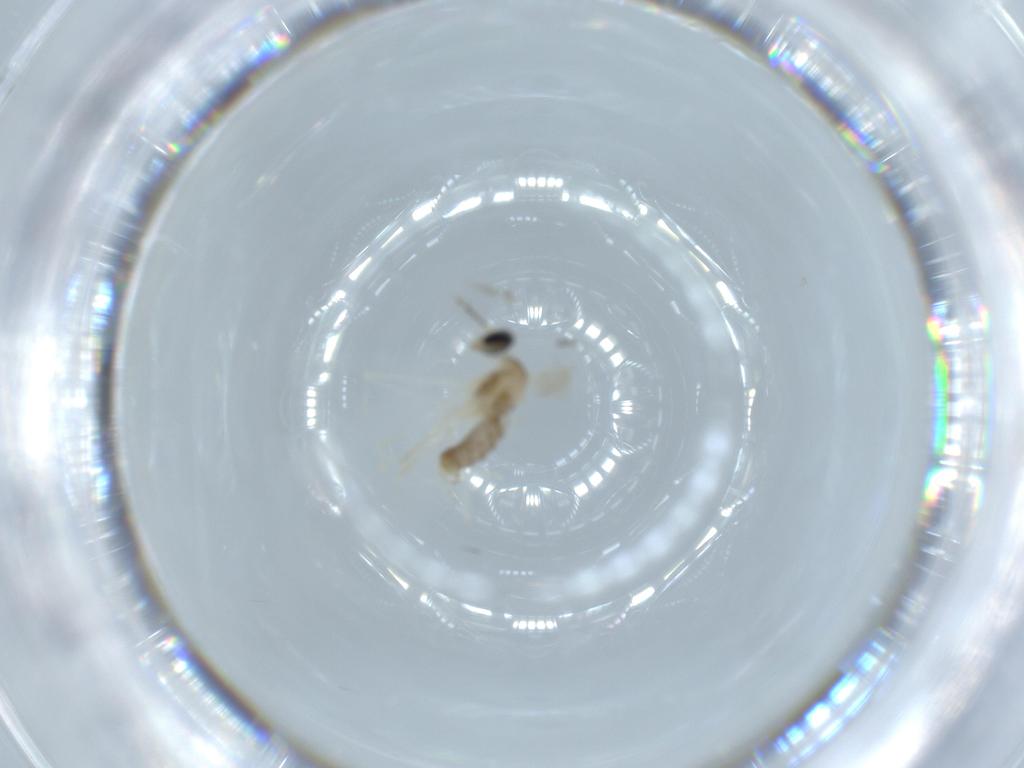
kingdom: Animalia
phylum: Arthropoda
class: Insecta
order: Diptera
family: Cecidomyiidae
